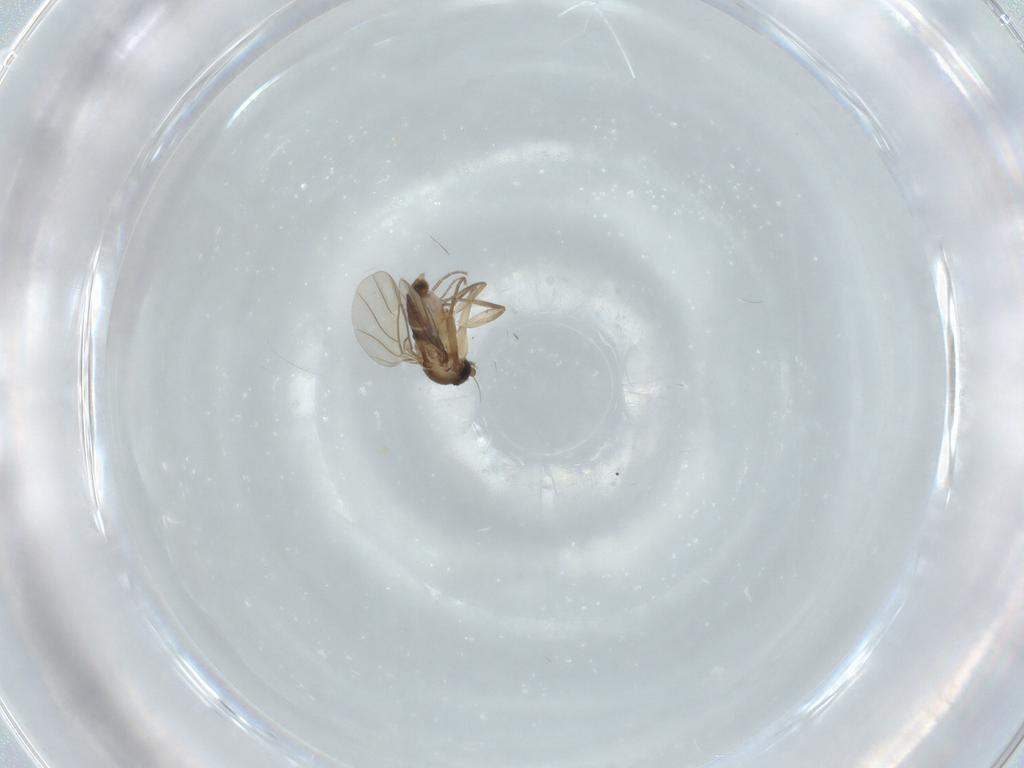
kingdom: Animalia
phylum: Arthropoda
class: Insecta
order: Diptera
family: Phoridae
